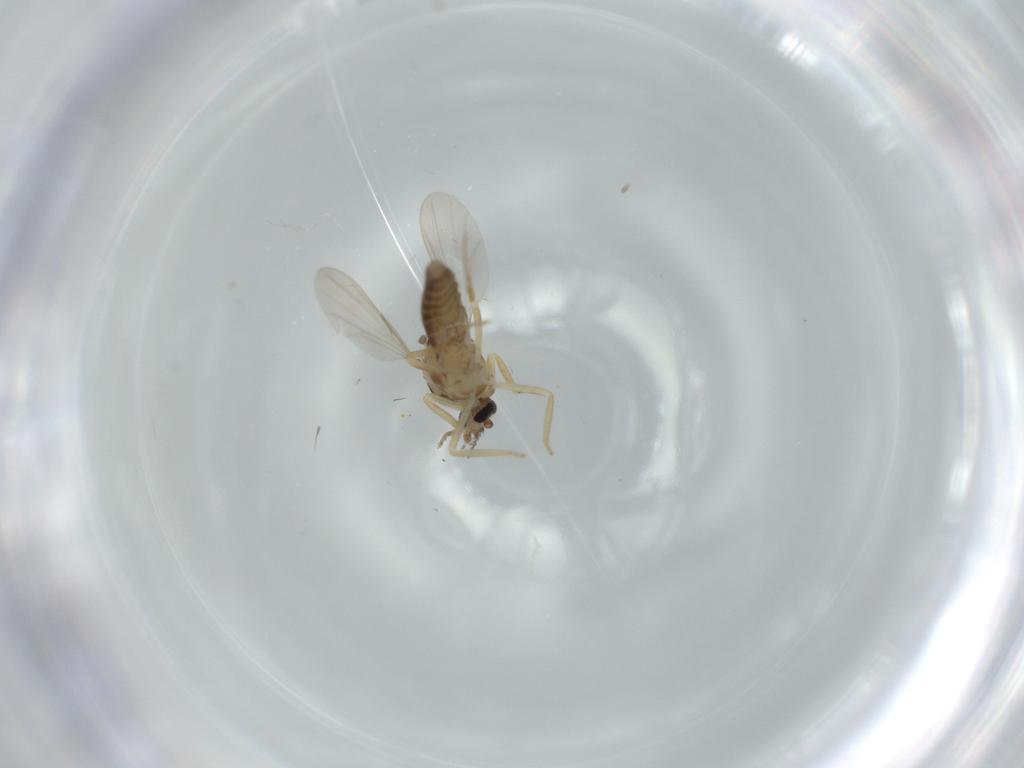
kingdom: Animalia
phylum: Arthropoda
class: Insecta
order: Diptera
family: Ceratopogonidae
